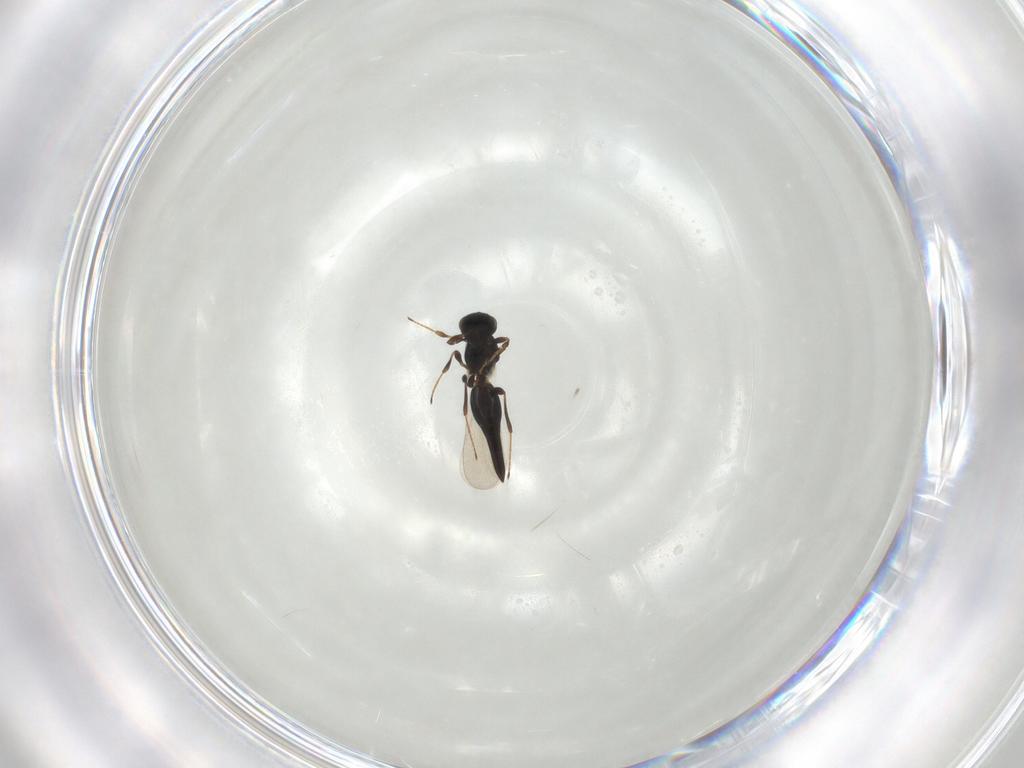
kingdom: Animalia
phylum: Arthropoda
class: Insecta
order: Hymenoptera
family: Platygastridae
